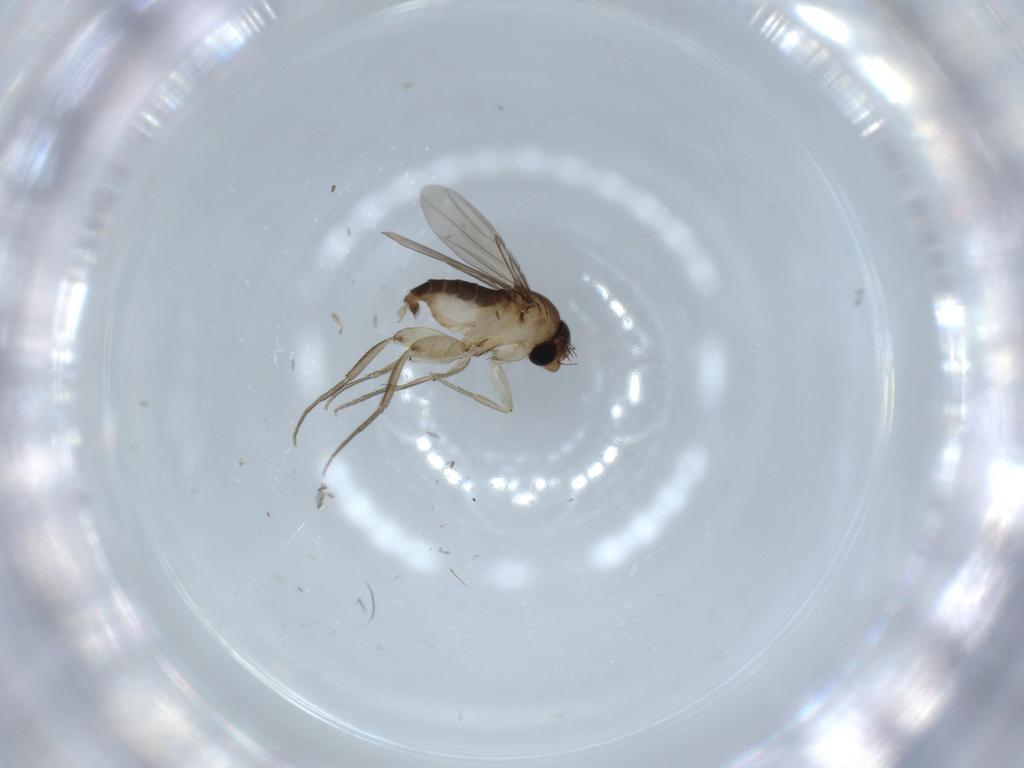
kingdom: Animalia
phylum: Arthropoda
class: Insecta
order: Diptera
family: Phoridae
